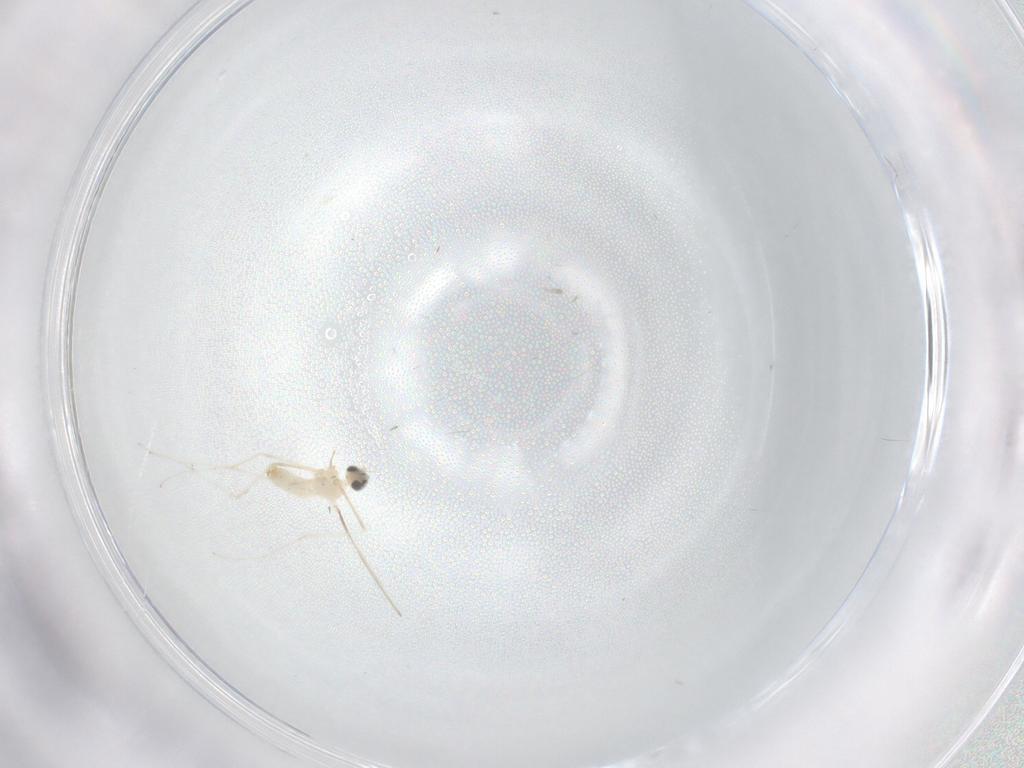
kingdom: Animalia
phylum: Arthropoda
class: Insecta
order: Diptera
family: Cecidomyiidae
